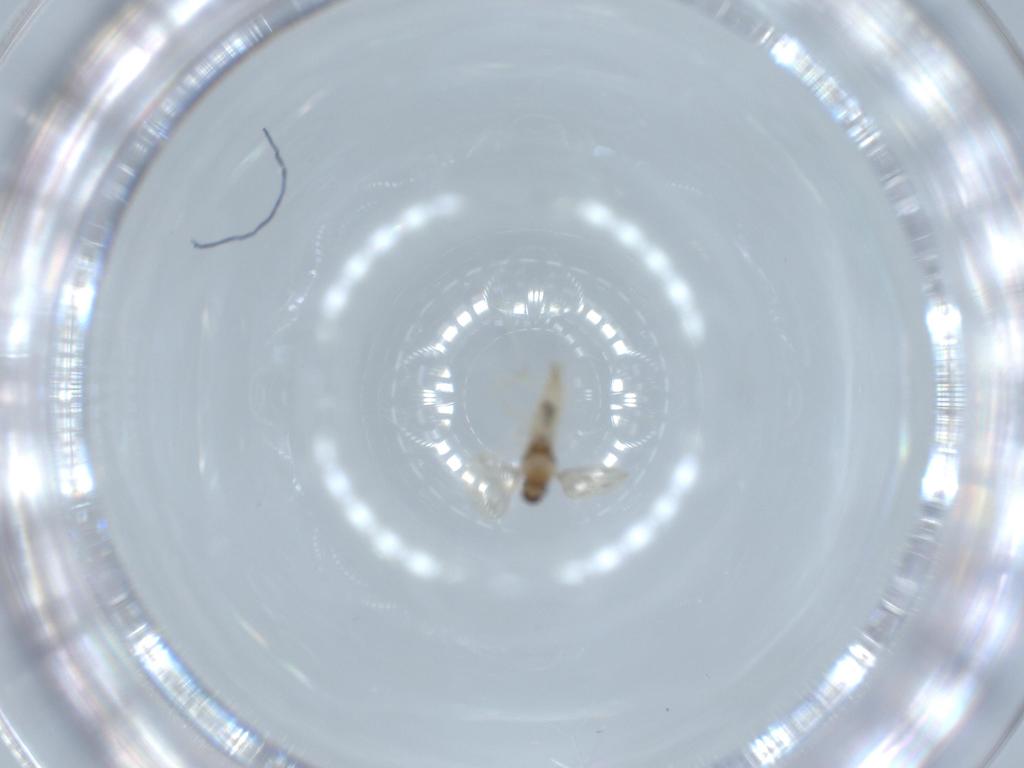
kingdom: Animalia
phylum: Arthropoda
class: Insecta
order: Diptera
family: Cecidomyiidae
